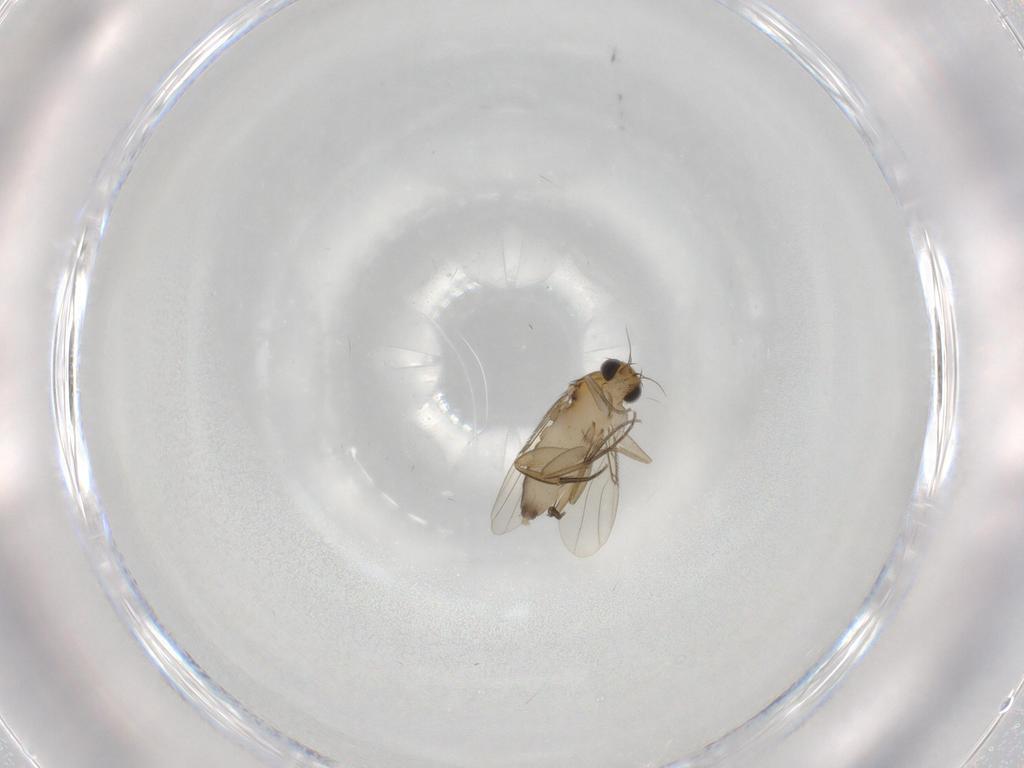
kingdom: Animalia
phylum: Arthropoda
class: Insecta
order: Diptera
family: Phoridae
